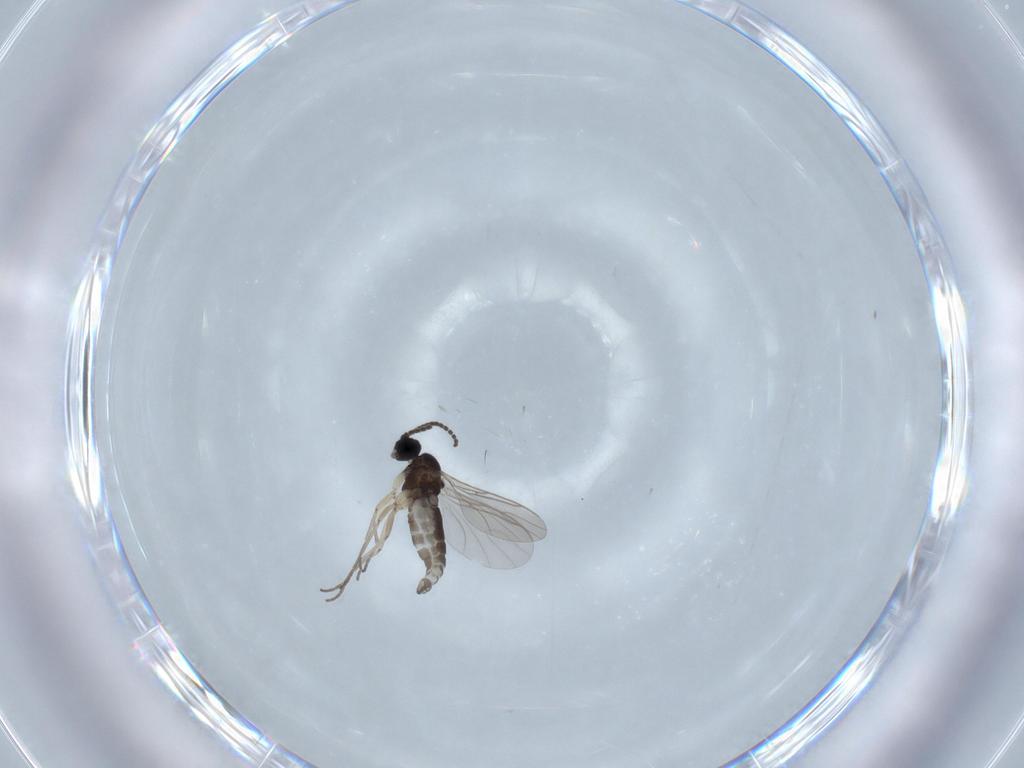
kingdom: Animalia
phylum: Arthropoda
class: Insecta
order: Diptera
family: Sciaridae
